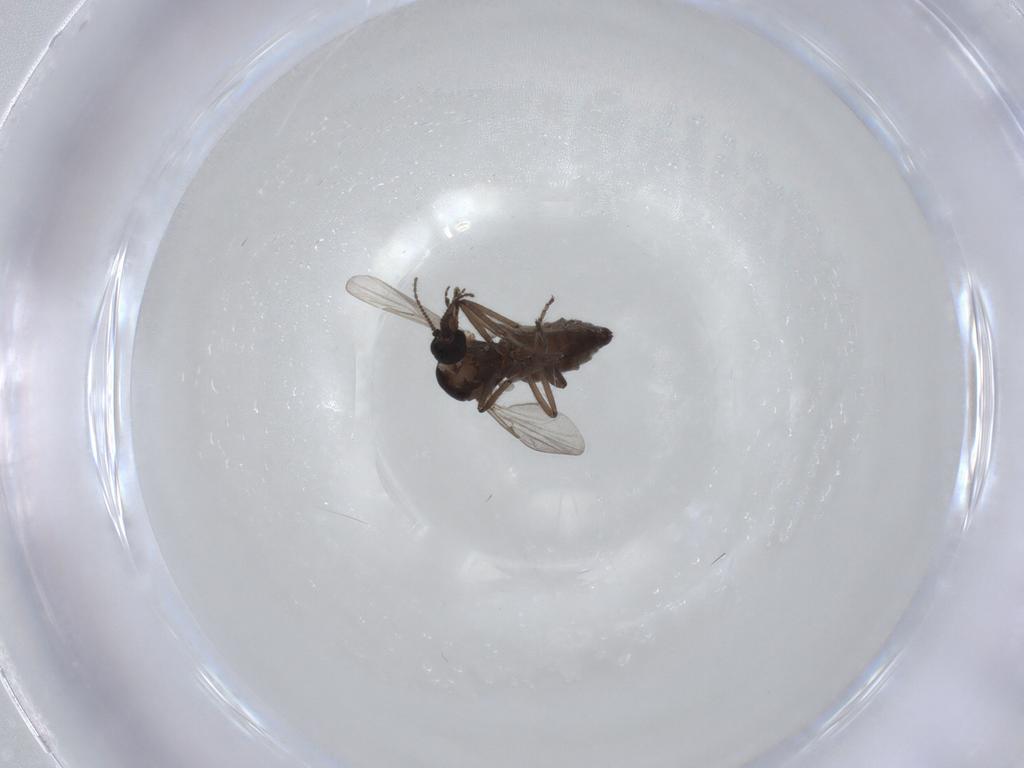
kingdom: Animalia
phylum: Arthropoda
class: Insecta
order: Diptera
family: Ceratopogonidae
